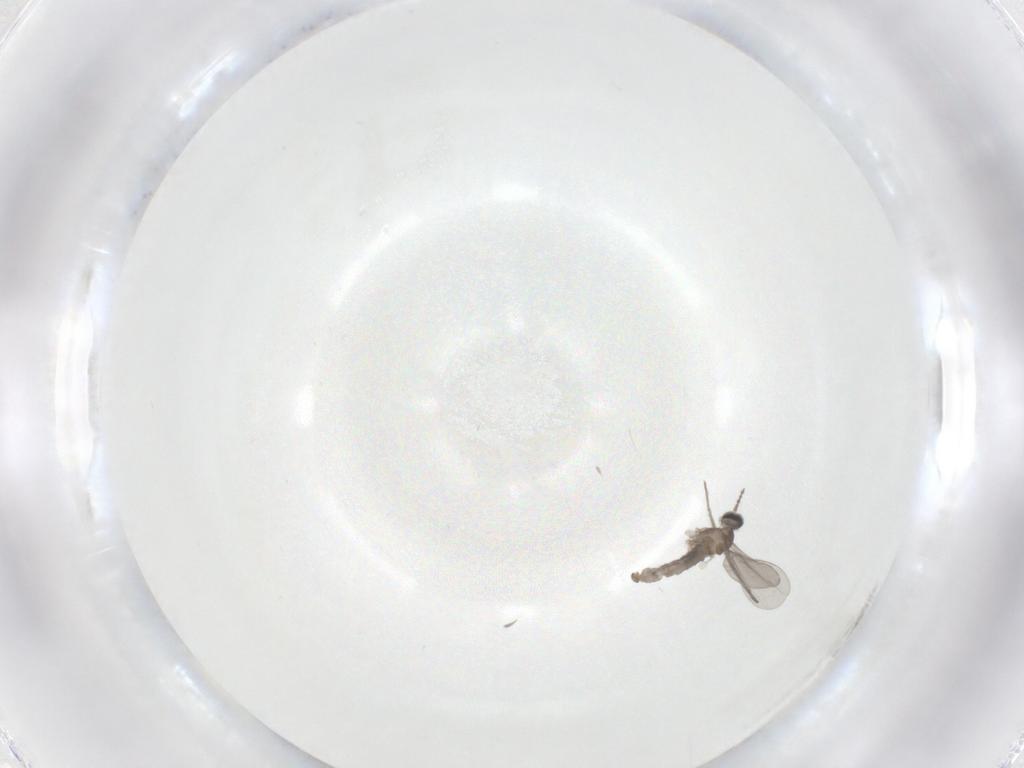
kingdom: Animalia
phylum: Arthropoda
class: Insecta
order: Diptera
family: Cecidomyiidae
